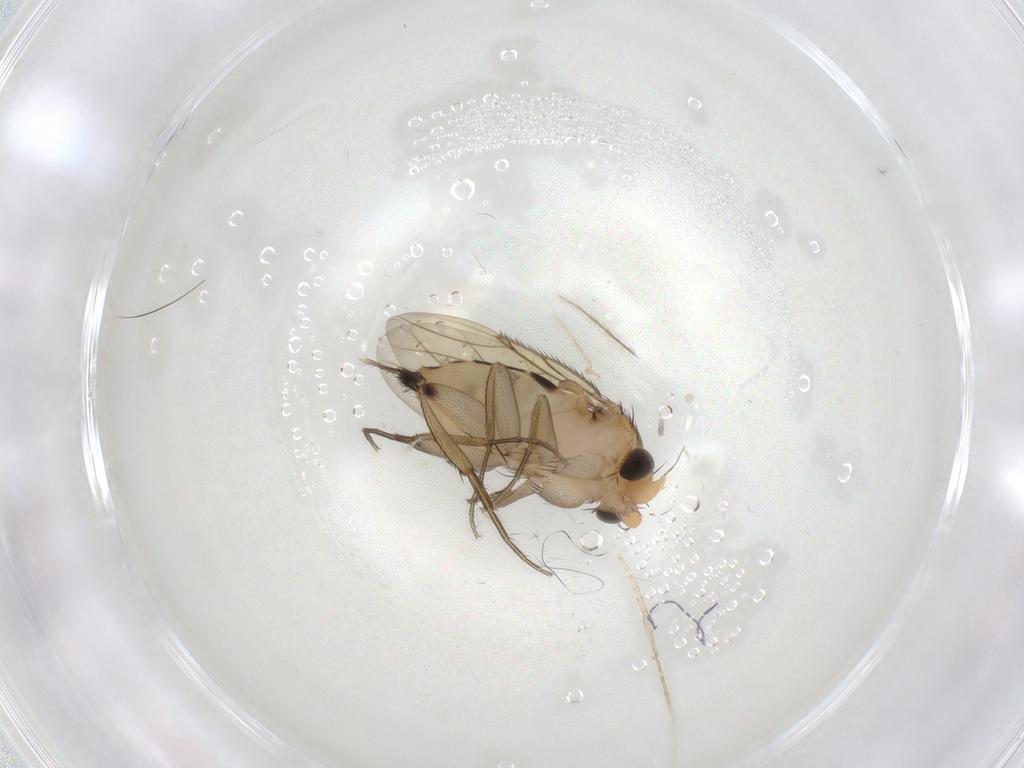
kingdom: Animalia
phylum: Arthropoda
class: Insecta
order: Diptera
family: Phoridae
